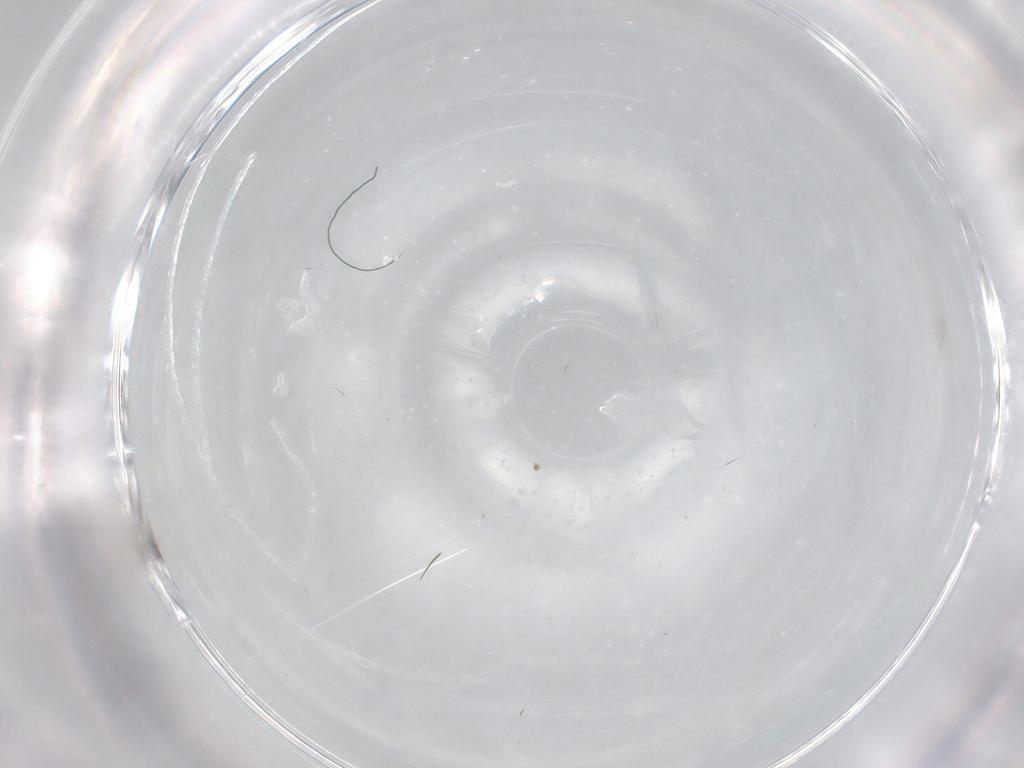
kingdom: Animalia
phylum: Arthropoda
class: Insecta
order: Diptera
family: Tabanidae
